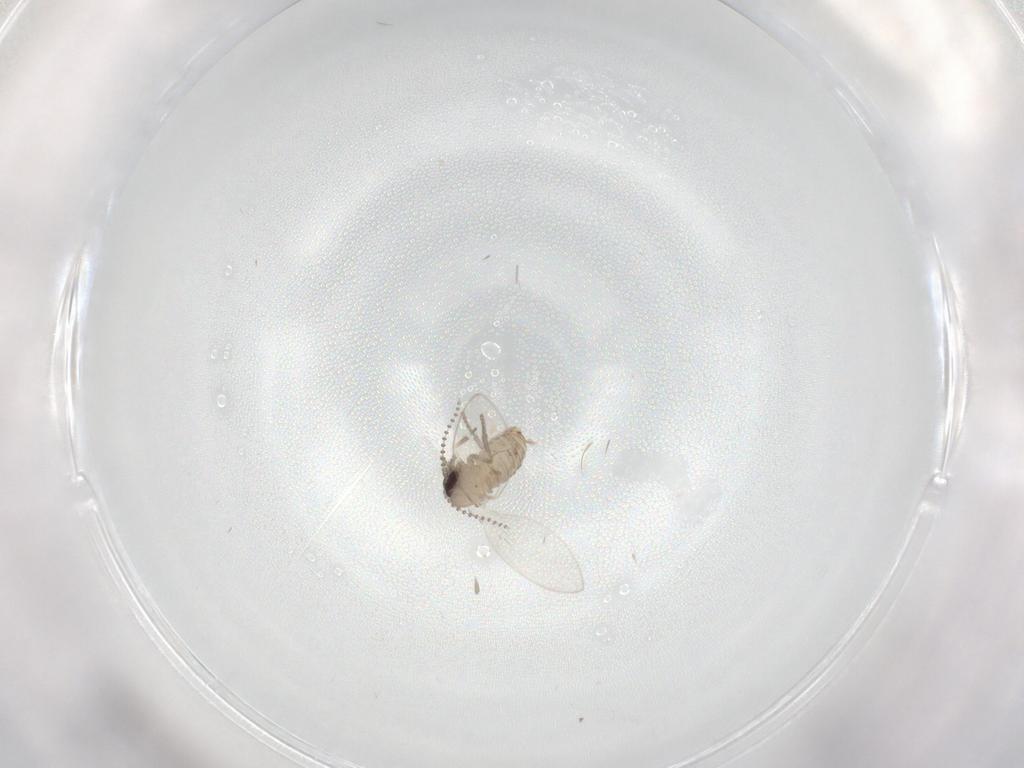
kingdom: Animalia
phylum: Arthropoda
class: Insecta
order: Diptera
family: Psychodidae
